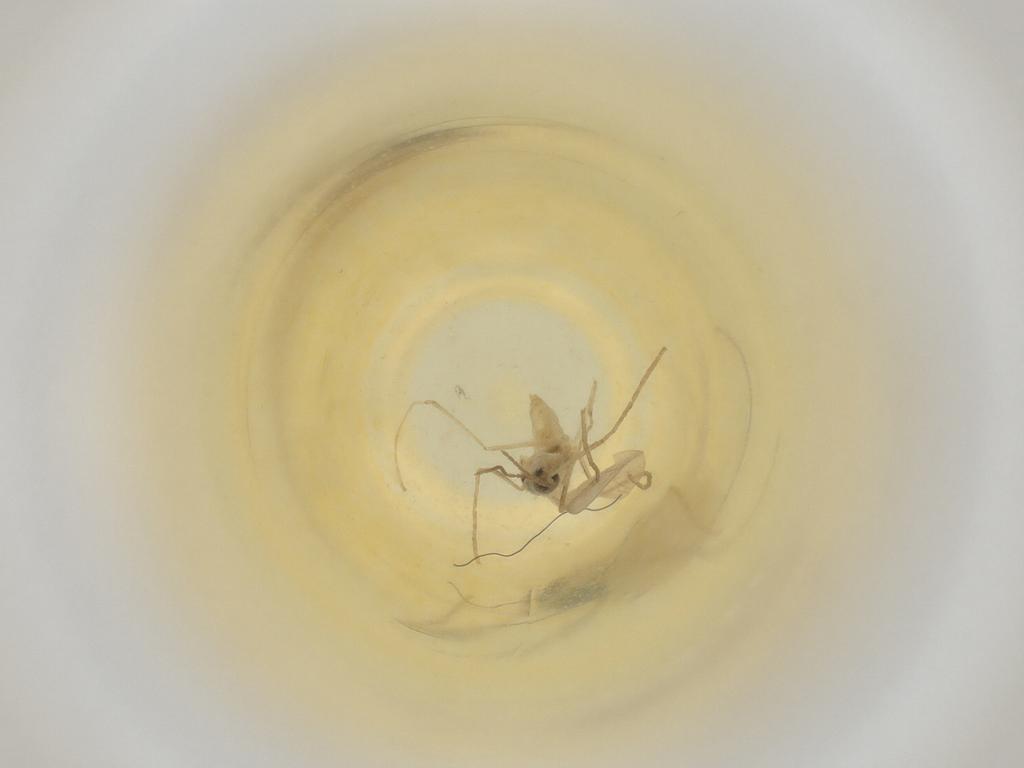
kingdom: Animalia
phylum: Arthropoda
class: Insecta
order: Diptera
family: Cecidomyiidae
